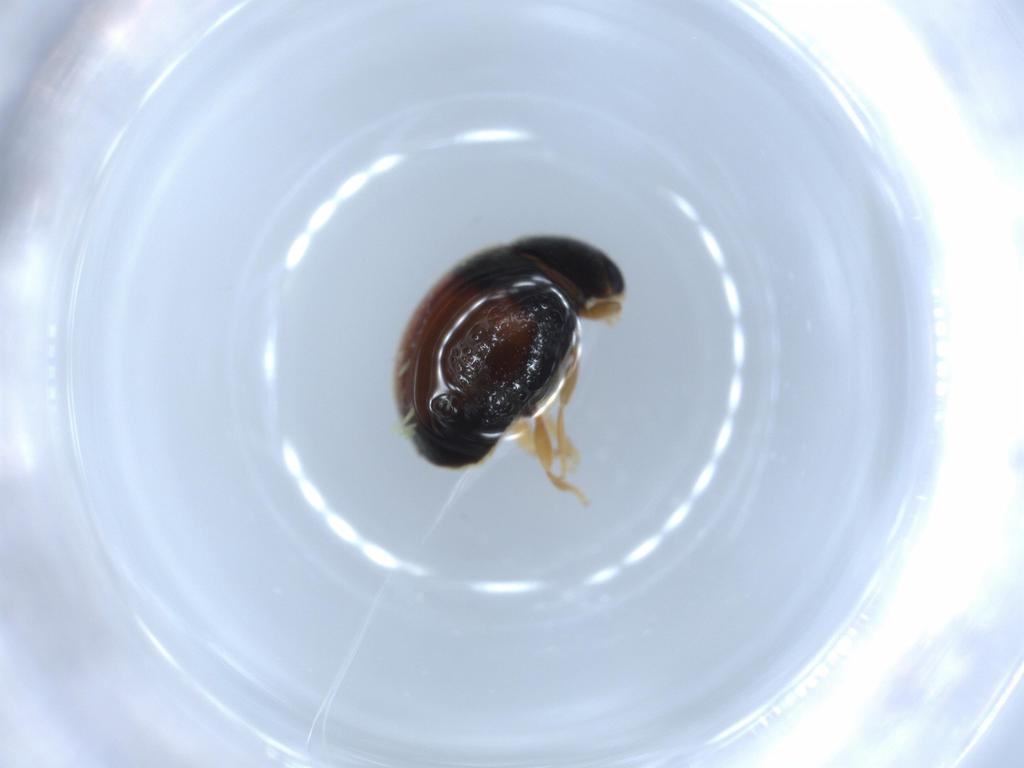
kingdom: Animalia
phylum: Arthropoda
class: Insecta
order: Coleoptera
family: Coccinellidae
